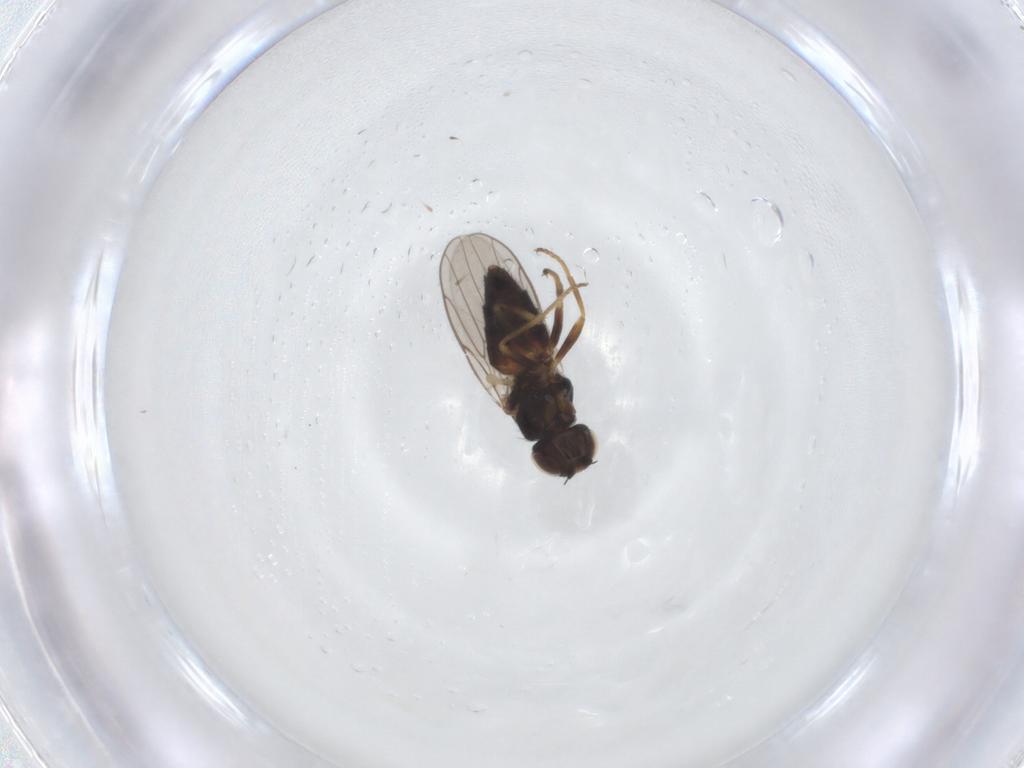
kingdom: Animalia
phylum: Arthropoda
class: Insecta
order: Diptera
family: Chloropidae
